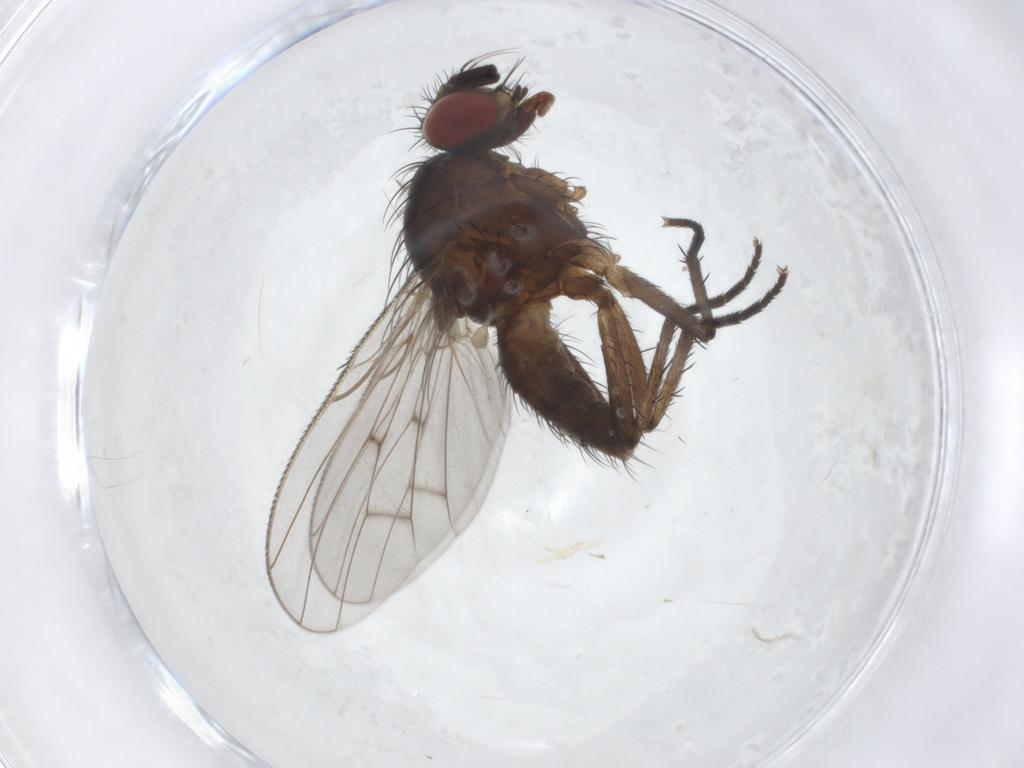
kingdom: Animalia
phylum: Arthropoda
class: Insecta
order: Diptera
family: Anthomyiidae
